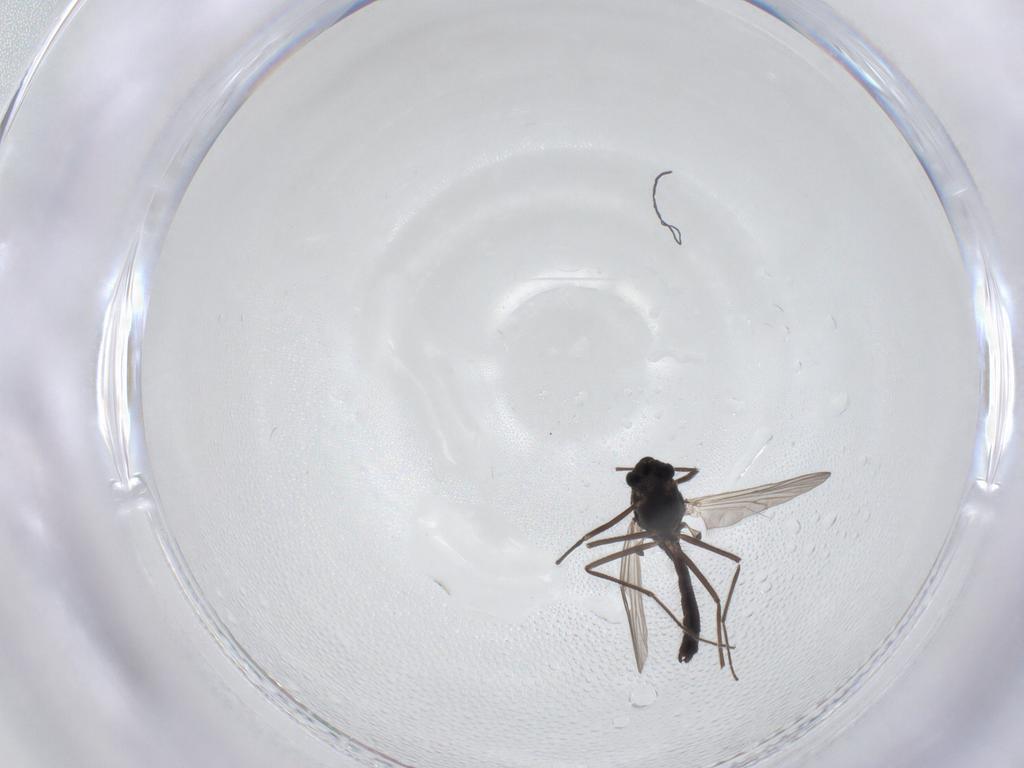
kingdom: Animalia
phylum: Arthropoda
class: Insecta
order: Diptera
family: Chironomidae
